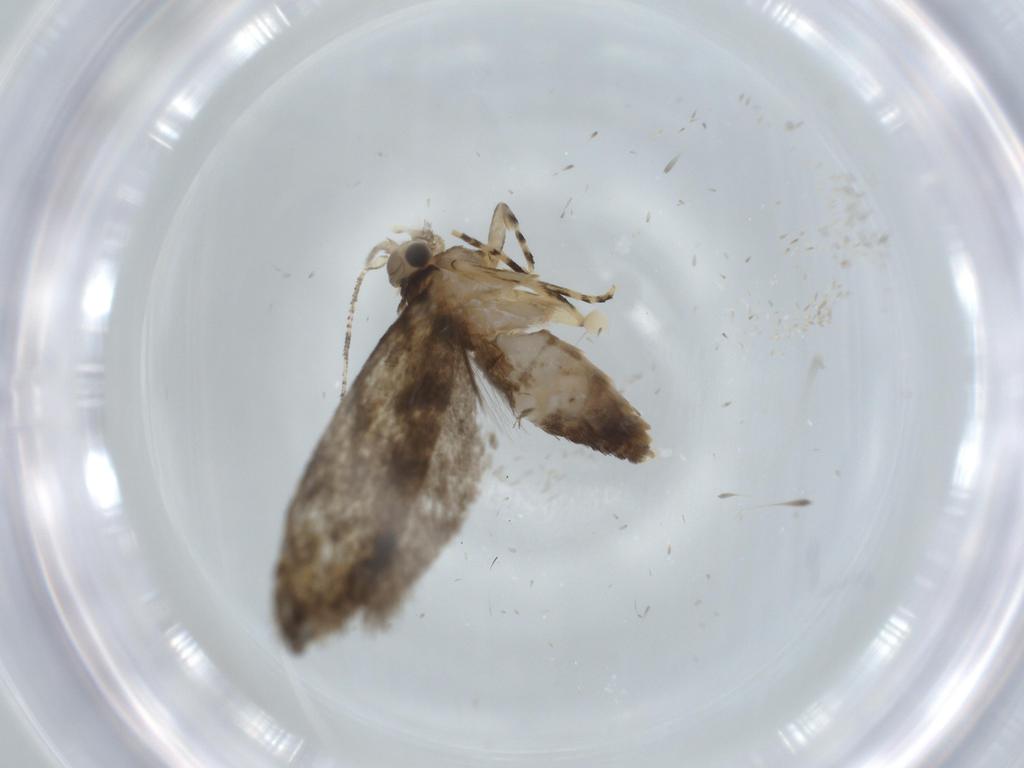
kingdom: Animalia
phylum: Arthropoda
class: Insecta
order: Lepidoptera
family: Tineidae
